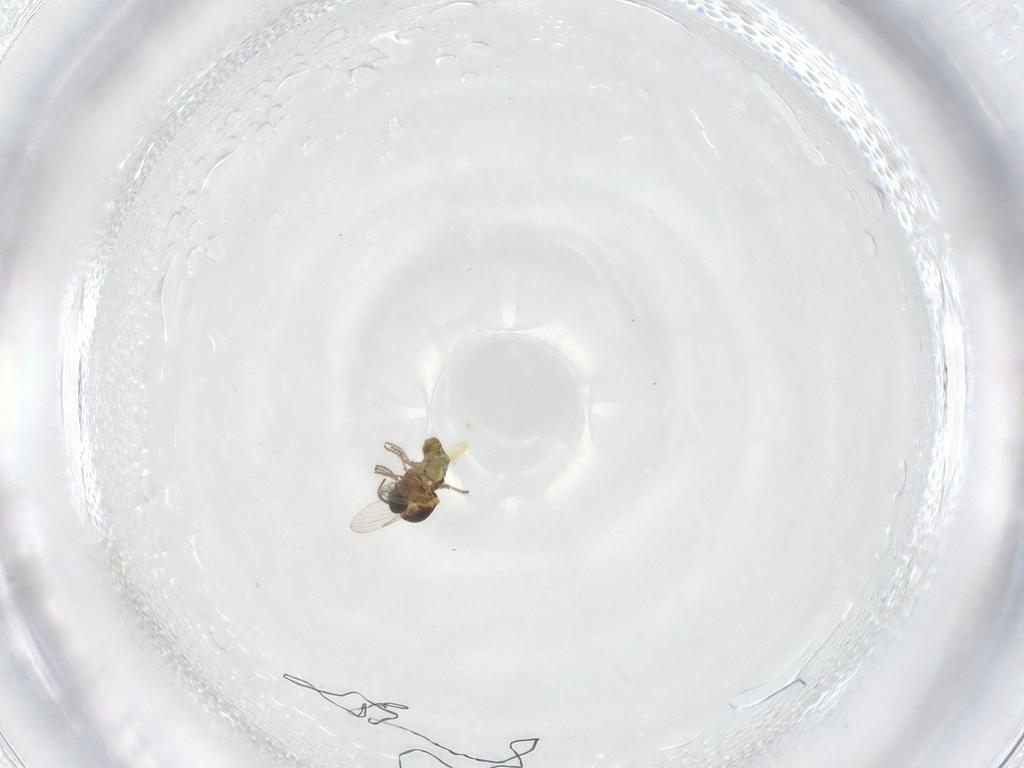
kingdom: Animalia
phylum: Arthropoda
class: Insecta
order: Diptera
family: Ceratopogonidae
